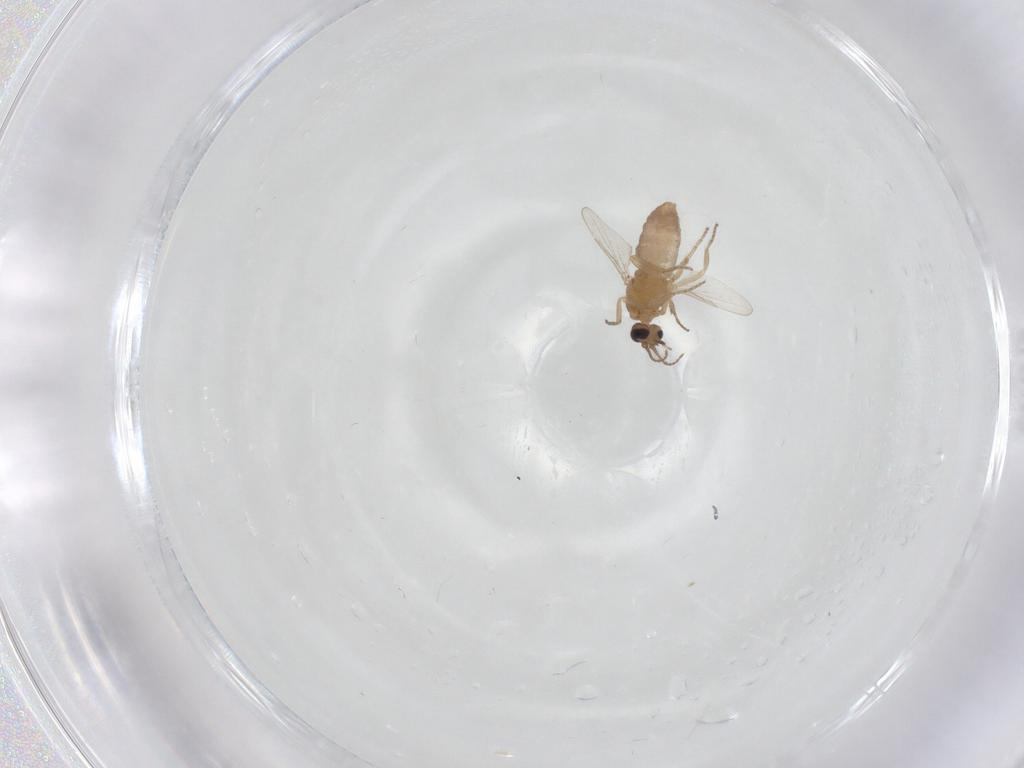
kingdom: Animalia
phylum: Arthropoda
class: Insecta
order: Diptera
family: Ceratopogonidae
